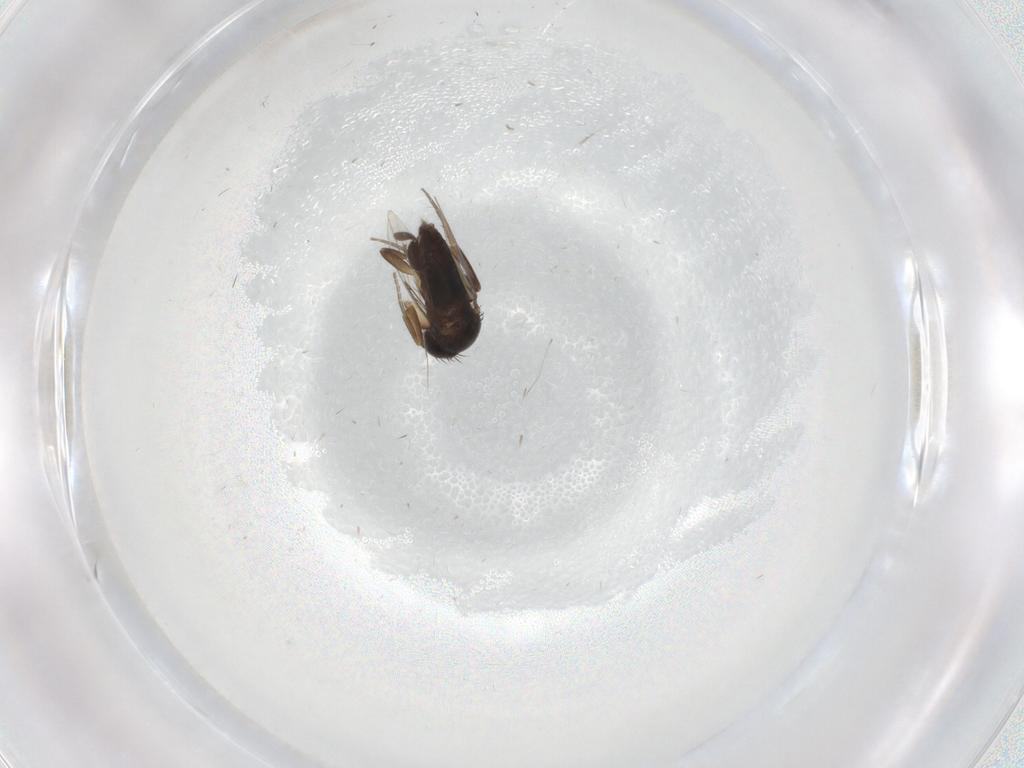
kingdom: Animalia
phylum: Arthropoda
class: Insecta
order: Diptera
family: Phoridae
